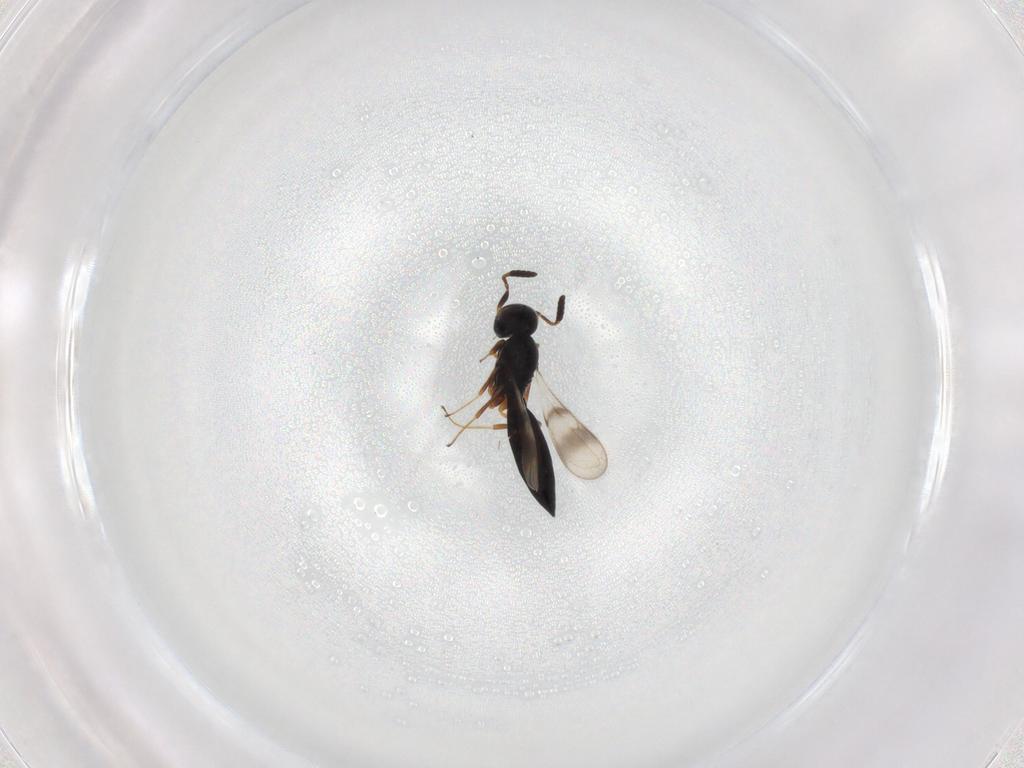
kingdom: Animalia
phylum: Arthropoda
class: Insecta
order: Hymenoptera
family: Scelionidae
